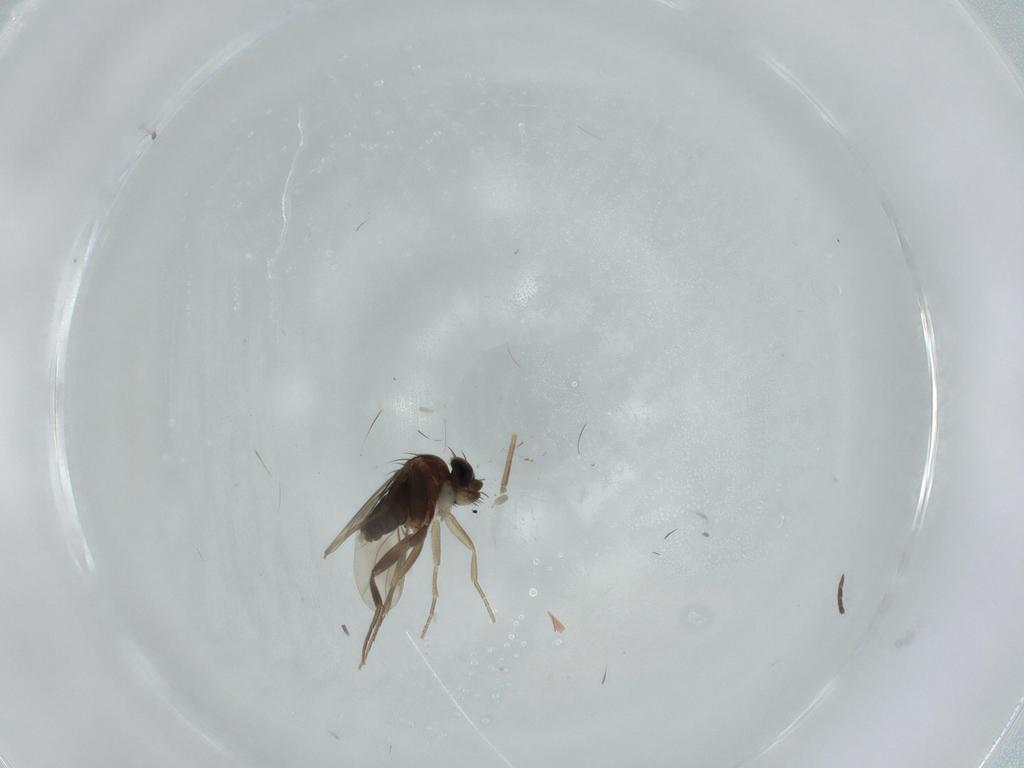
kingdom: Animalia
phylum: Arthropoda
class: Insecta
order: Diptera
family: Phoridae
